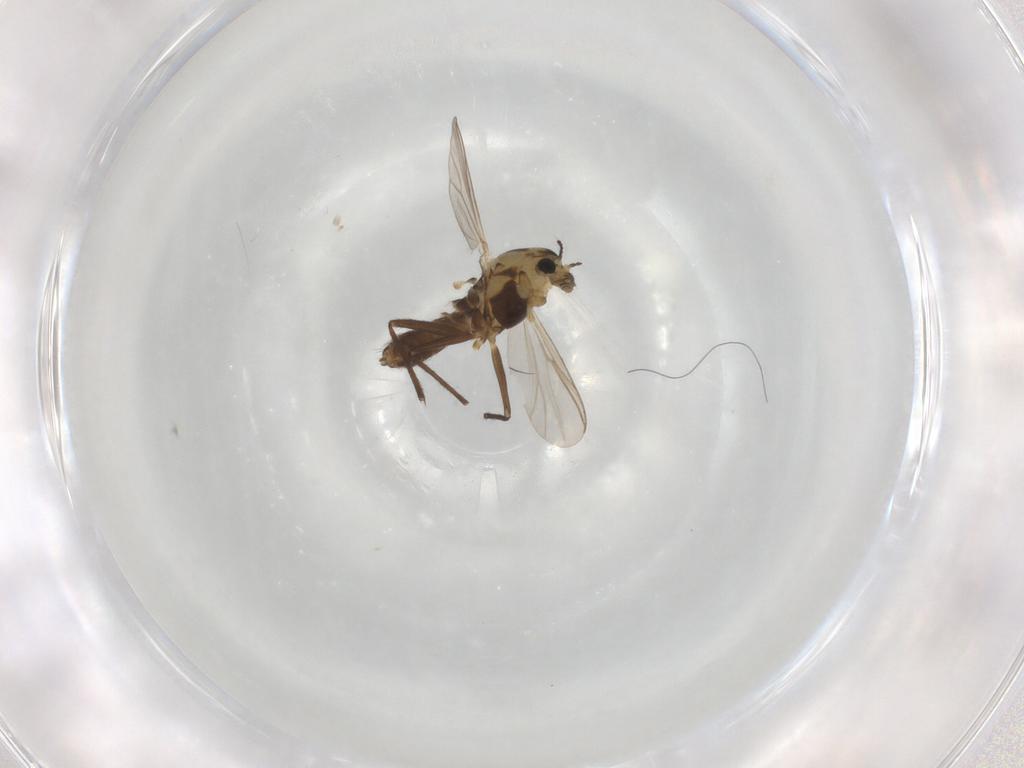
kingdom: Animalia
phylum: Arthropoda
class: Insecta
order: Diptera
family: Chironomidae
